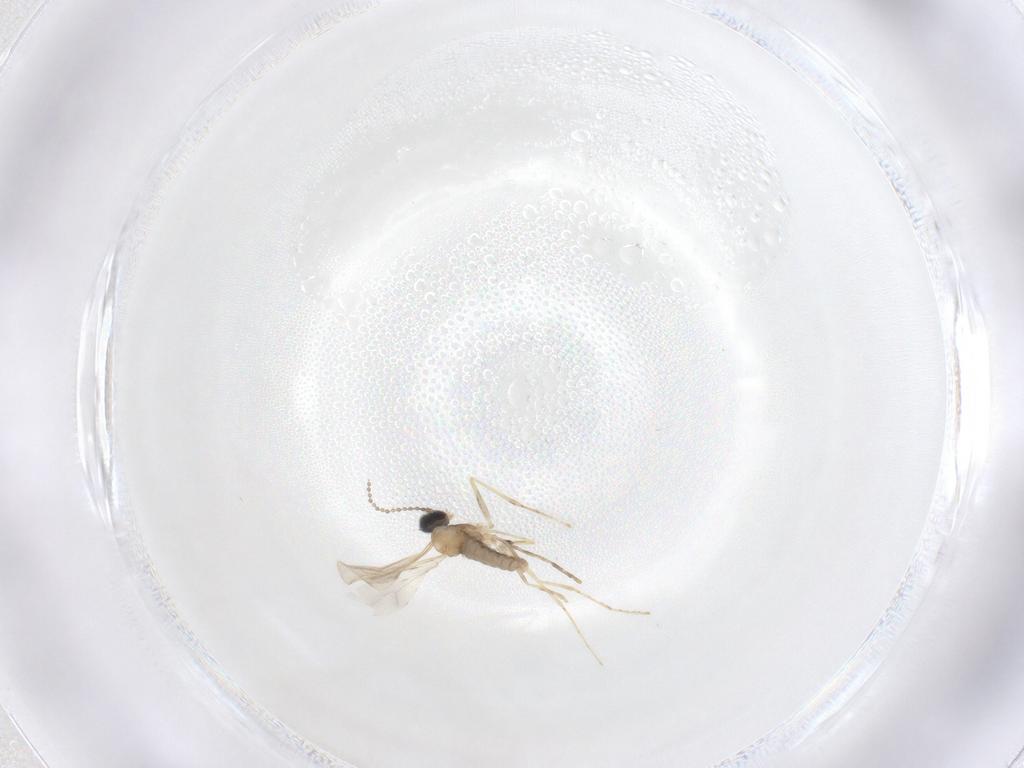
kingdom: Animalia
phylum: Arthropoda
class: Insecta
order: Diptera
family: Cecidomyiidae
